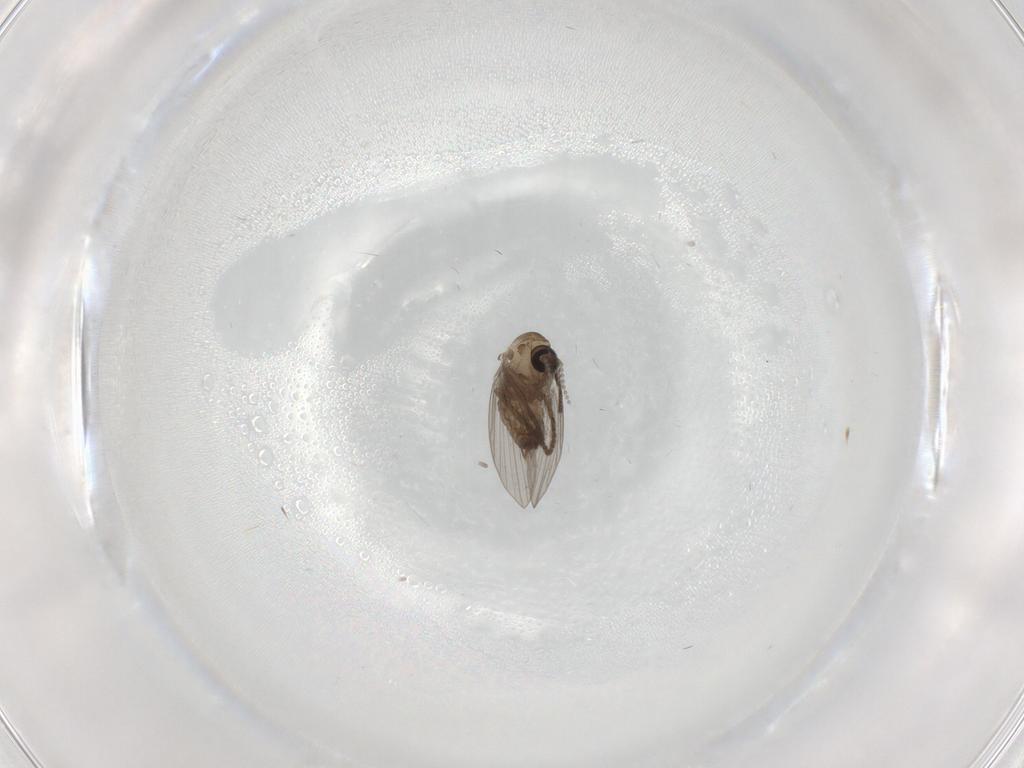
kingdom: Animalia
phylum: Arthropoda
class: Insecta
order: Diptera
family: Psychodidae
